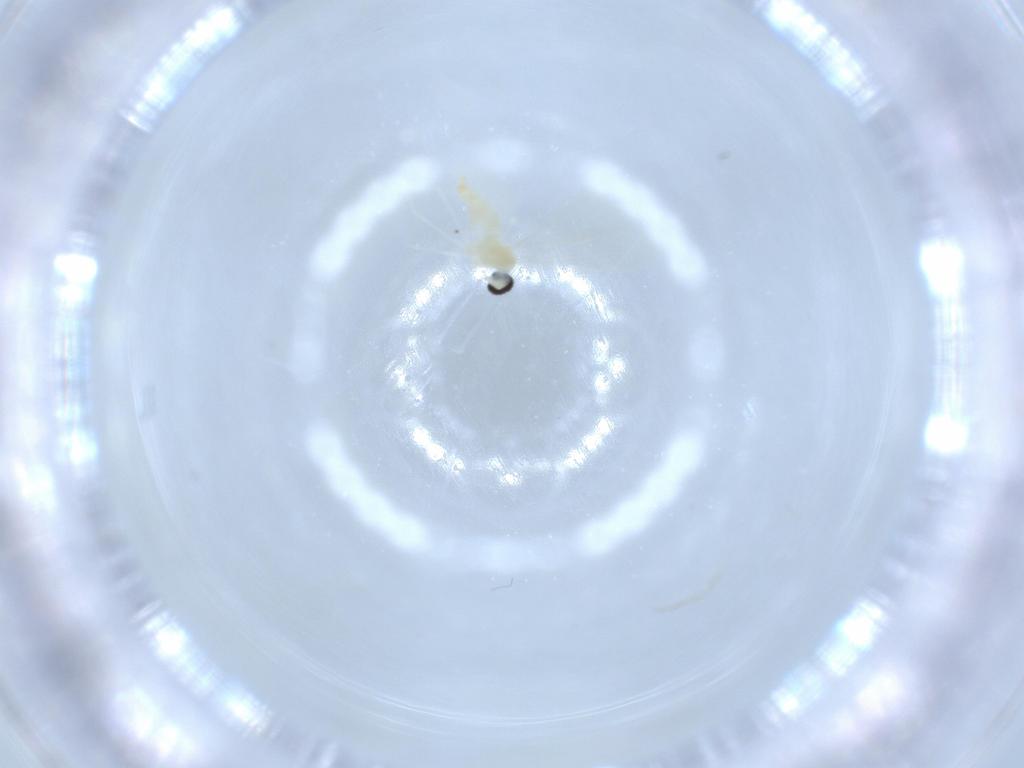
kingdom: Animalia
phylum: Arthropoda
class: Insecta
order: Diptera
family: Cecidomyiidae
